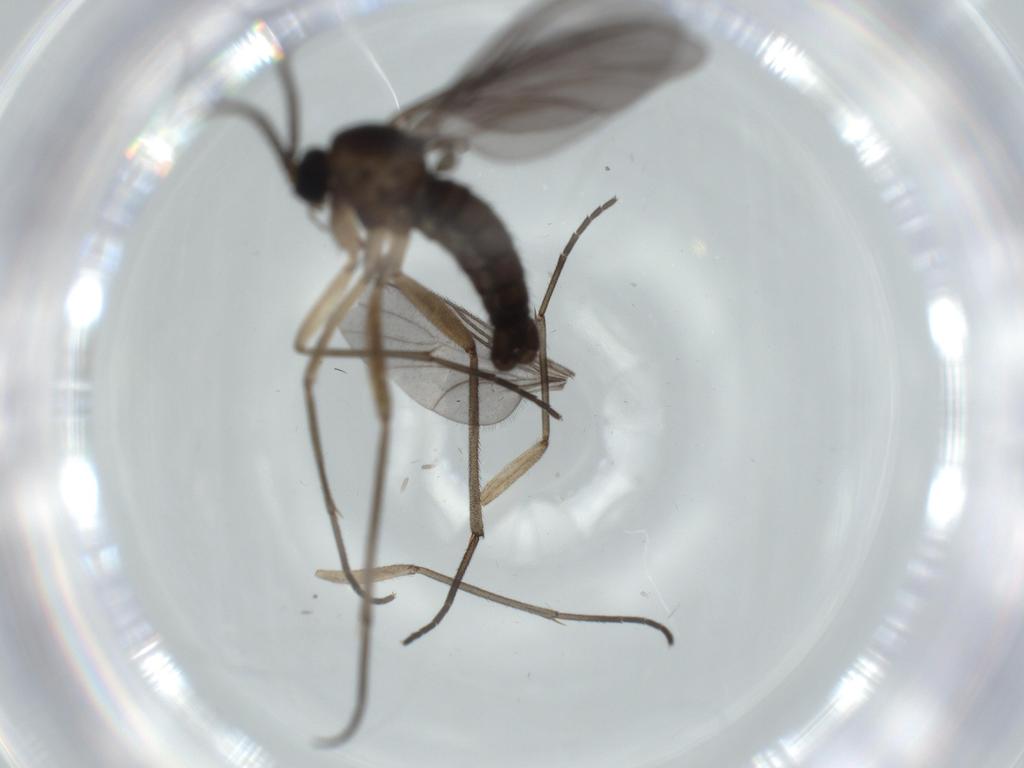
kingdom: Animalia
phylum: Arthropoda
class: Insecta
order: Diptera
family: Sciaridae
